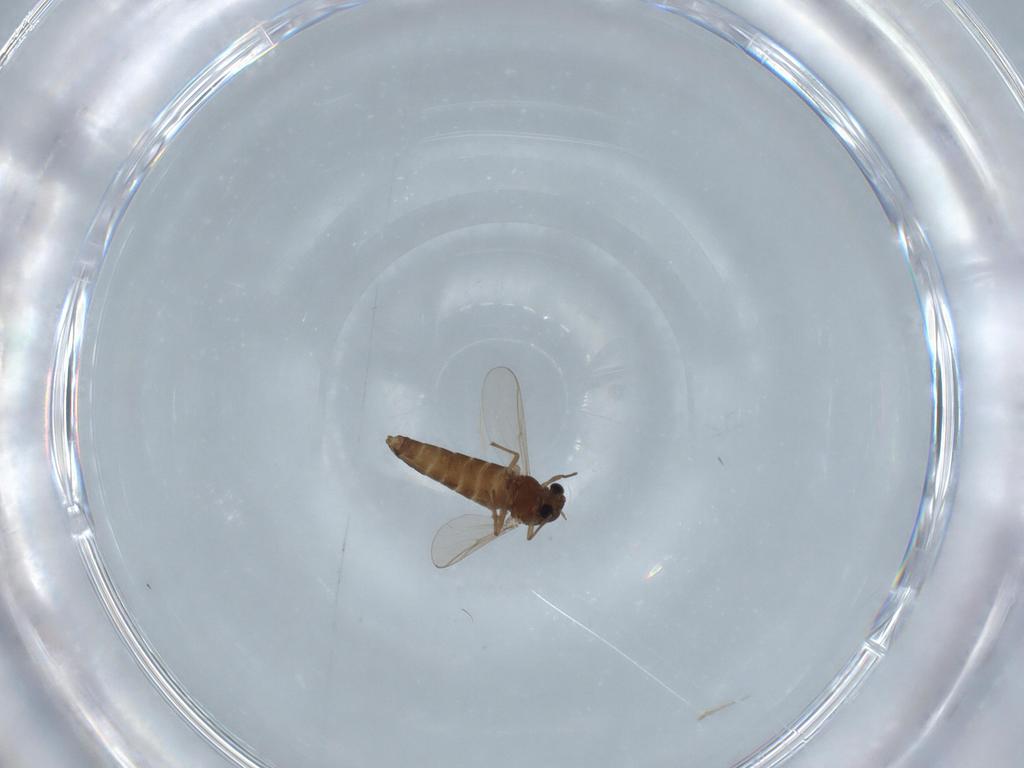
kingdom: Animalia
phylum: Arthropoda
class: Insecta
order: Diptera
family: Chironomidae
